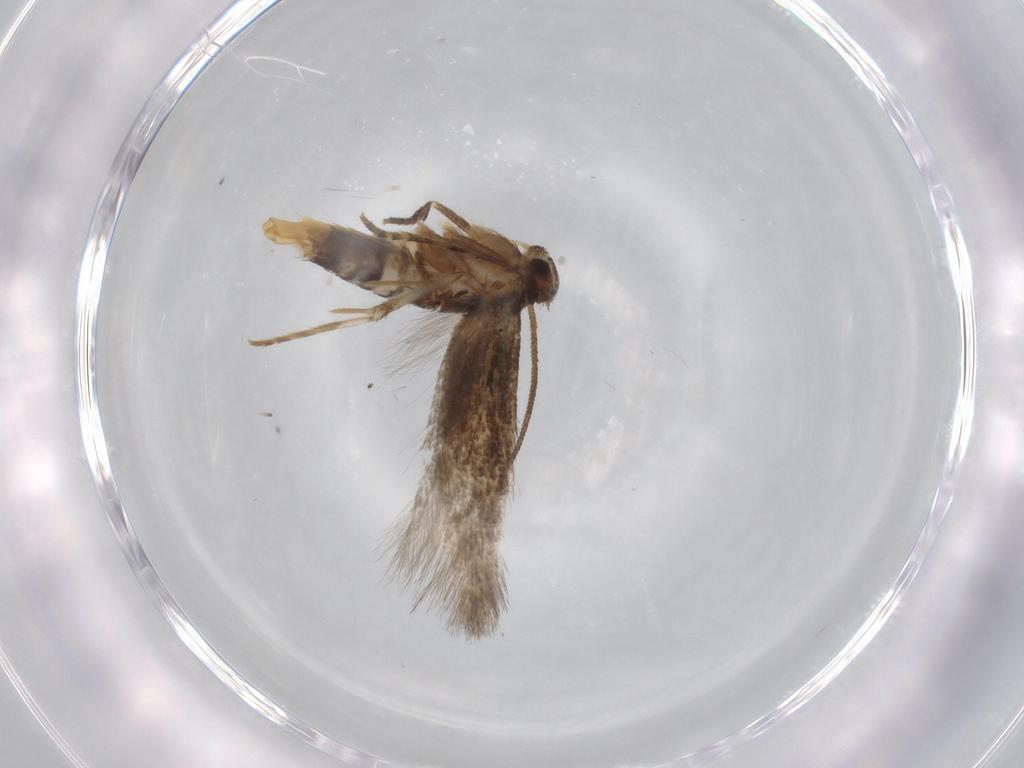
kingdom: Animalia
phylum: Arthropoda
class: Insecta
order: Lepidoptera
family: Elachistidae
